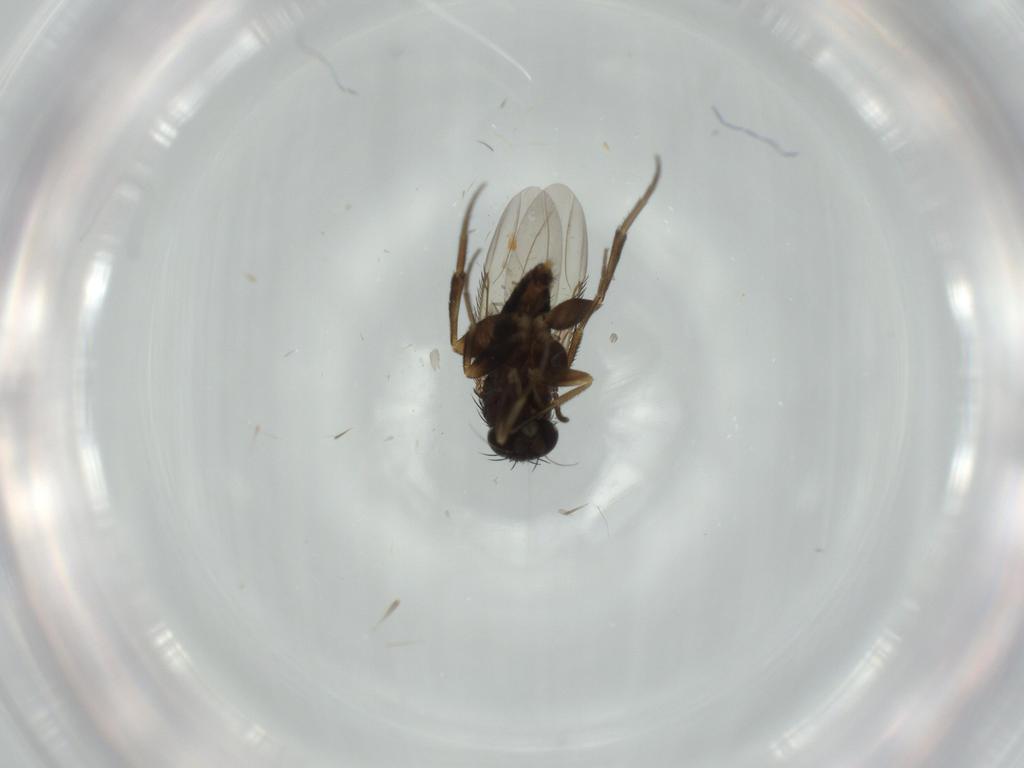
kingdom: Animalia
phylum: Arthropoda
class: Insecta
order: Diptera
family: Phoridae
